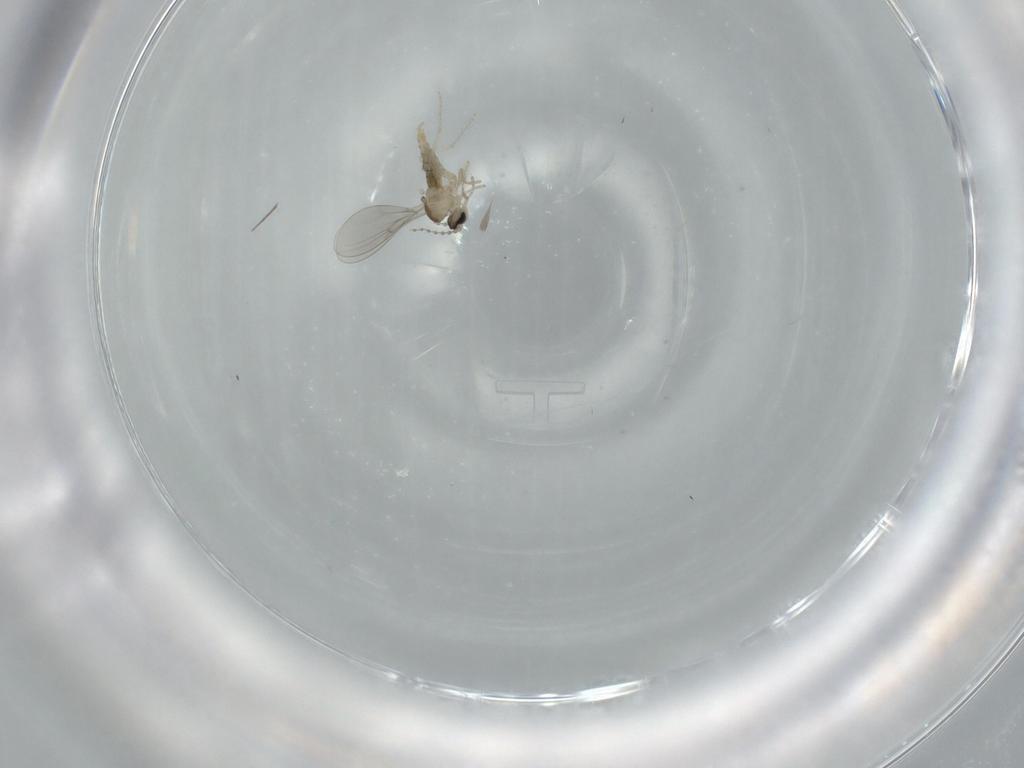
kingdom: Animalia
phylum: Arthropoda
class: Insecta
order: Diptera
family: Cecidomyiidae
